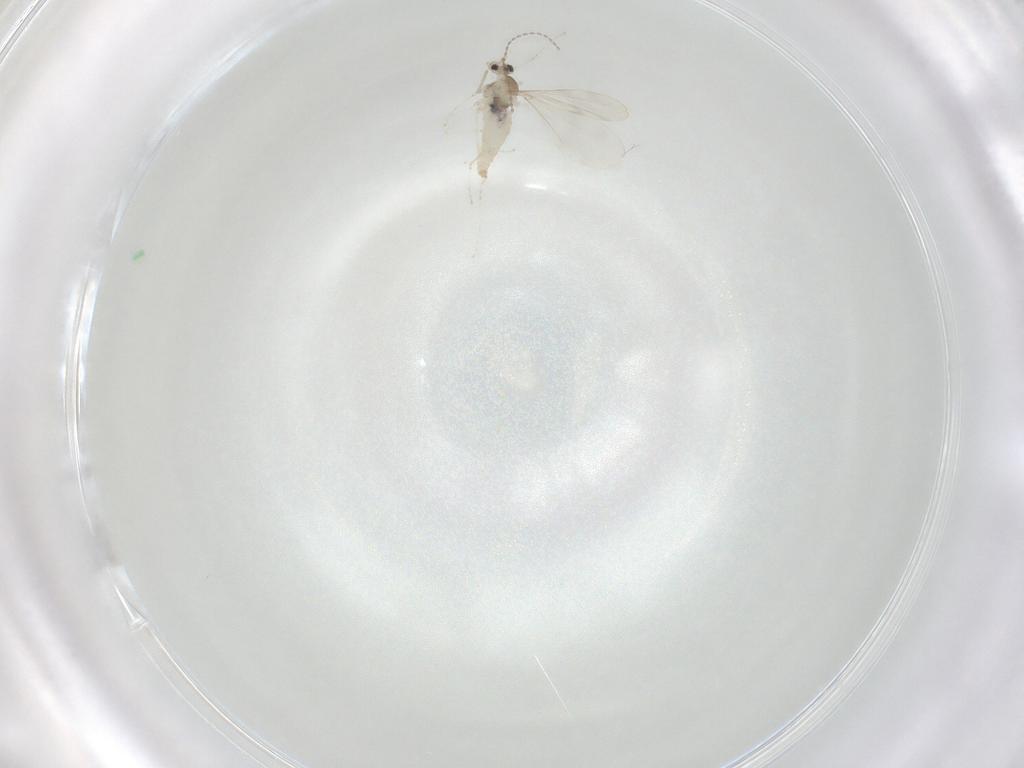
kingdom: Animalia
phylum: Arthropoda
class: Insecta
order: Diptera
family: Cecidomyiidae
